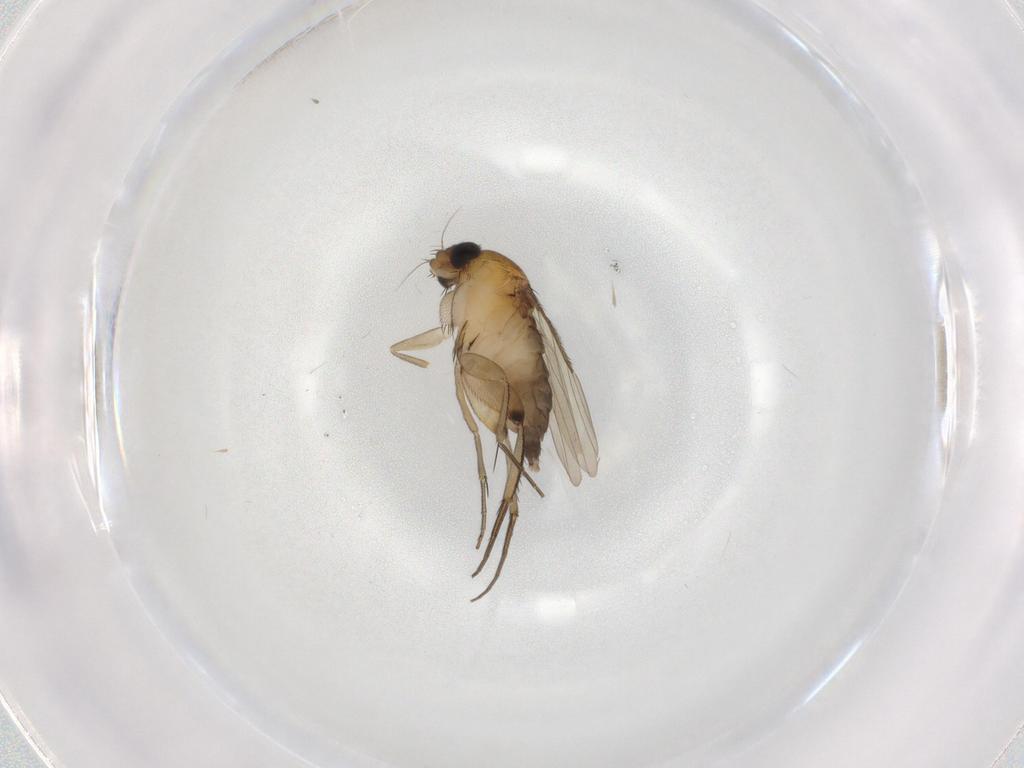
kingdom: Animalia
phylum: Arthropoda
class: Insecta
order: Diptera
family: Phoridae
